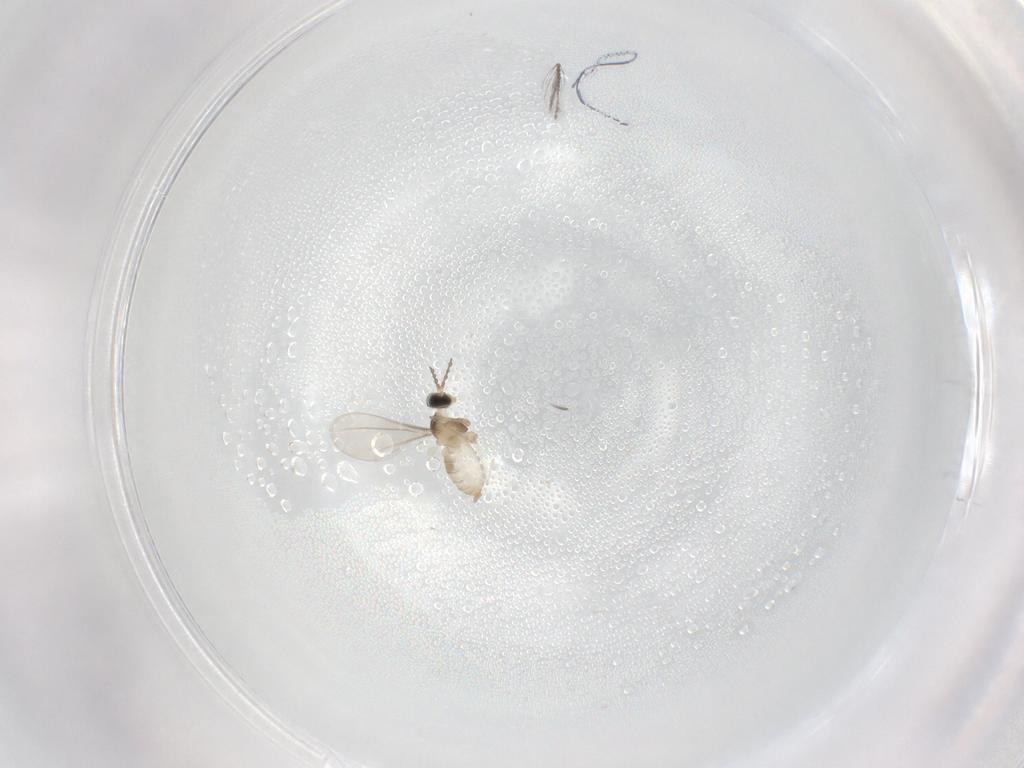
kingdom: Animalia
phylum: Arthropoda
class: Insecta
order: Diptera
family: Cecidomyiidae
